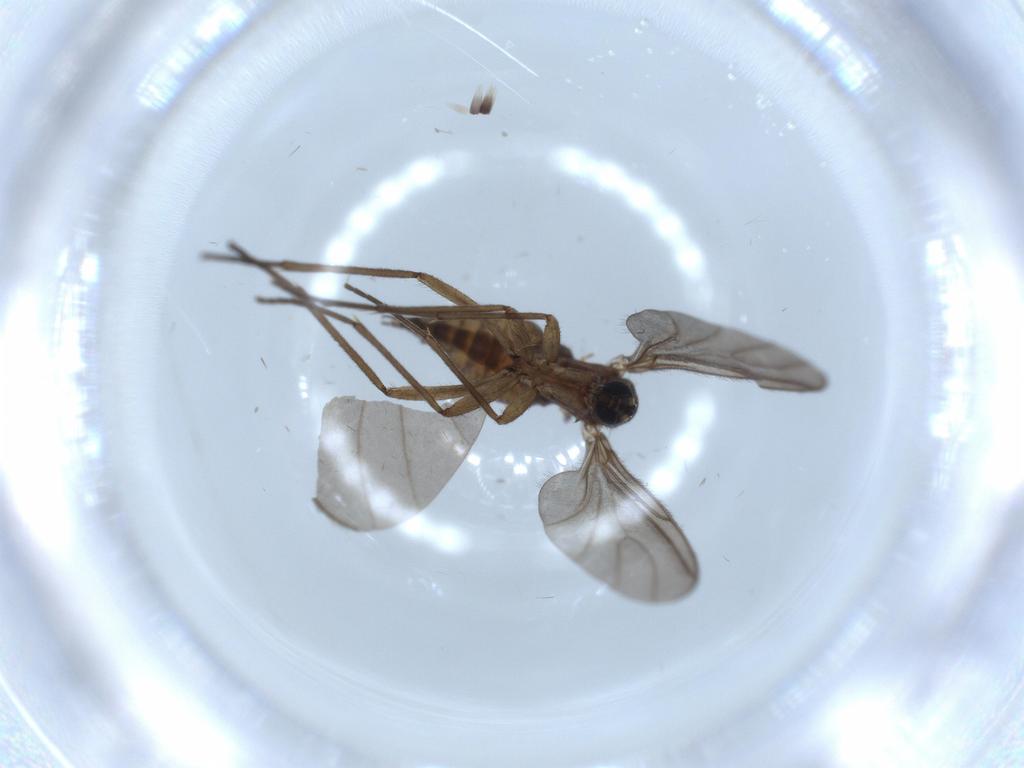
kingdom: Animalia
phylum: Arthropoda
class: Insecta
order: Diptera
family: Sciaridae
